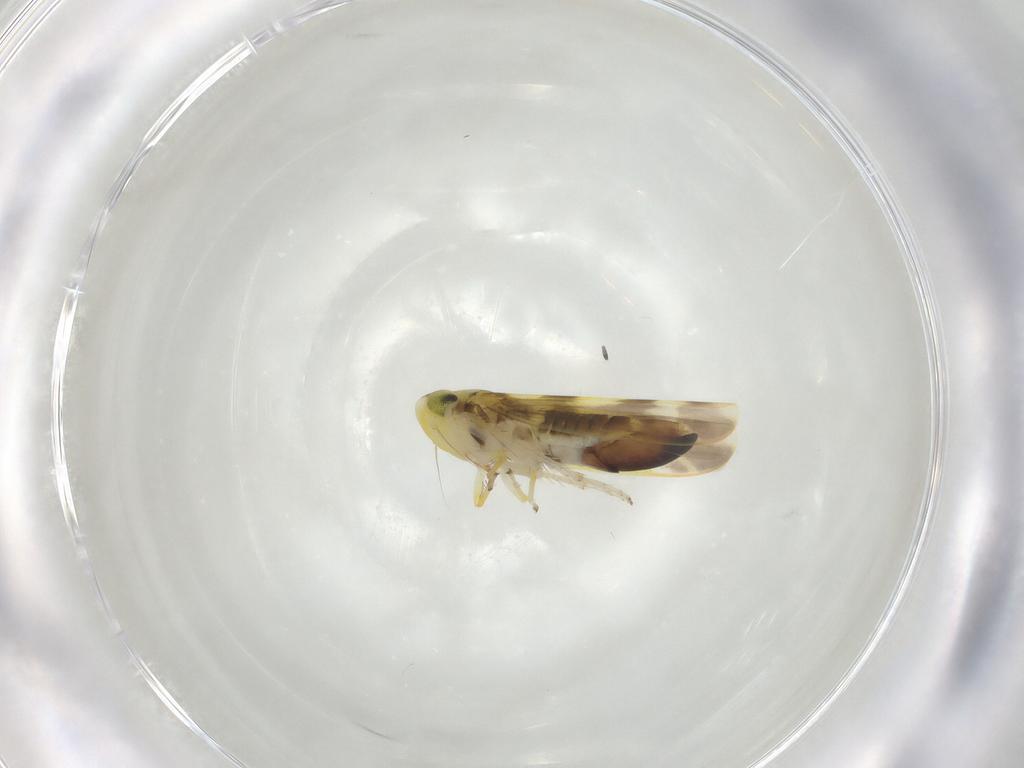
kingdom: Animalia
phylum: Arthropoda
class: Insecta
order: Hemiptera
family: Cicadellidae
